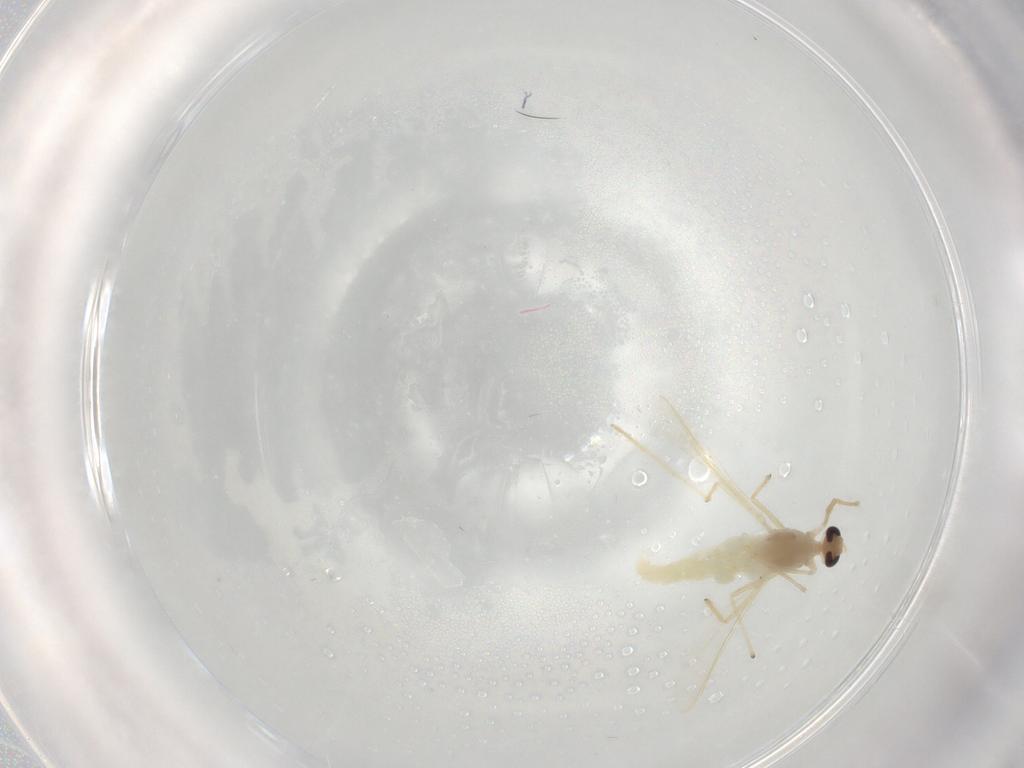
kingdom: Animalia
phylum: Arthropoda
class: Insecta
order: Diptera
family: Chironomidae
